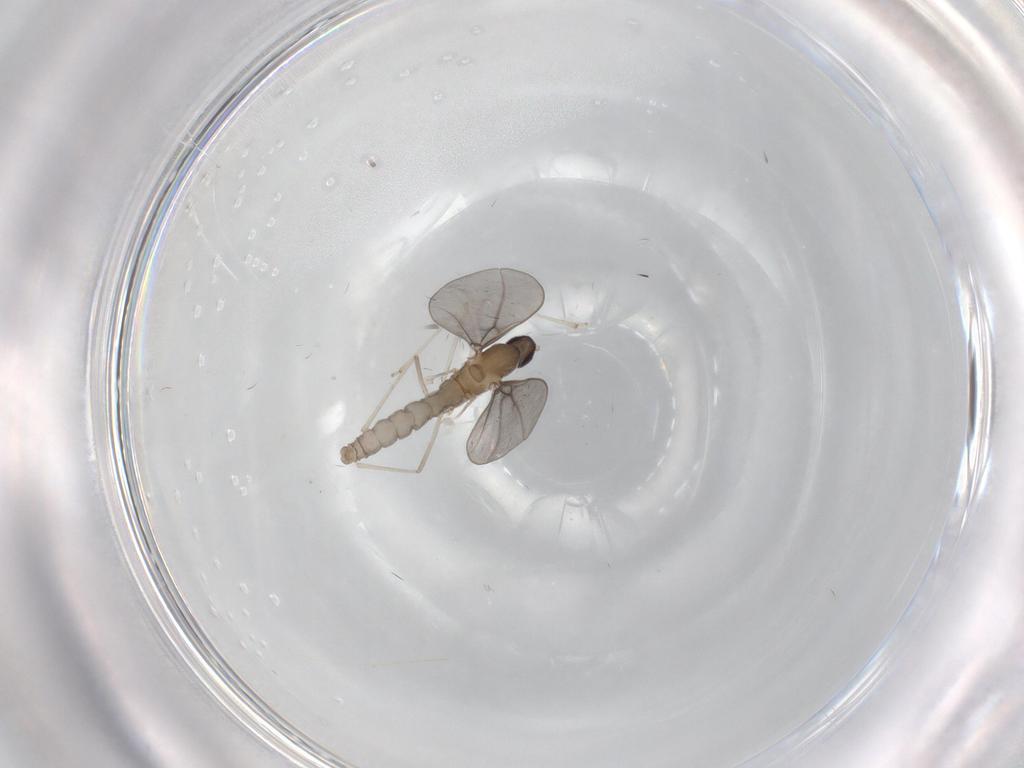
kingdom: Animalia
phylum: Arthropoda
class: Insecta
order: Diptera
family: Cecidomyiidae
